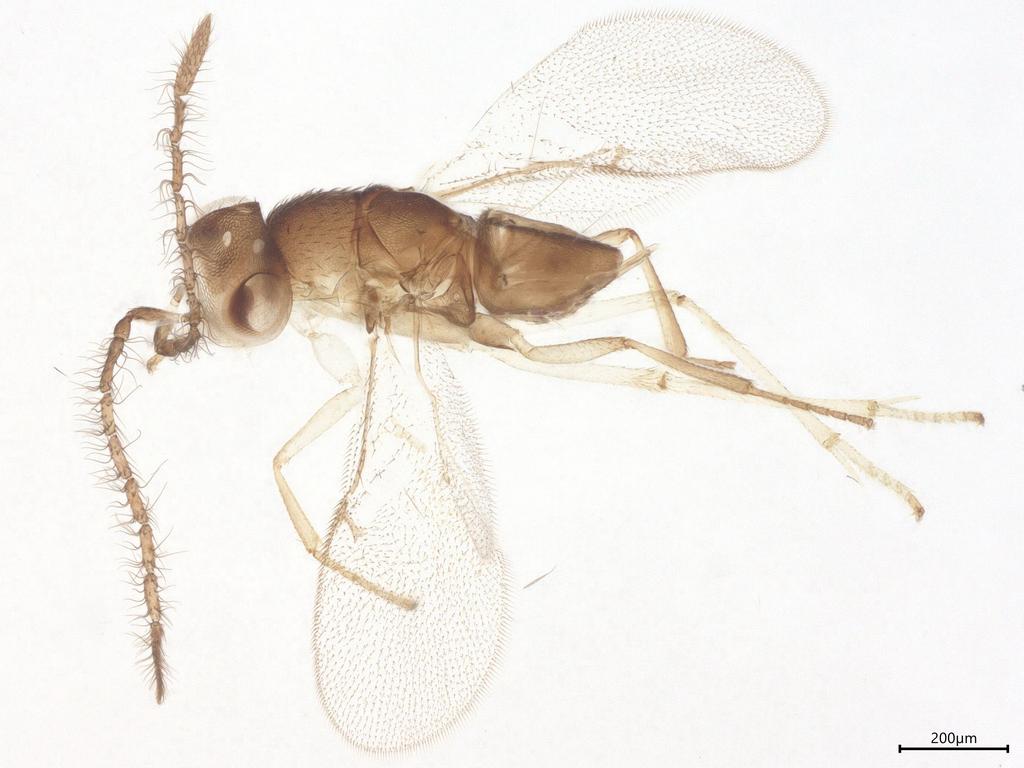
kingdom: Animalia
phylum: Arthropoda
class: Insecta
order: Hymenoptera
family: Encyrtidae
